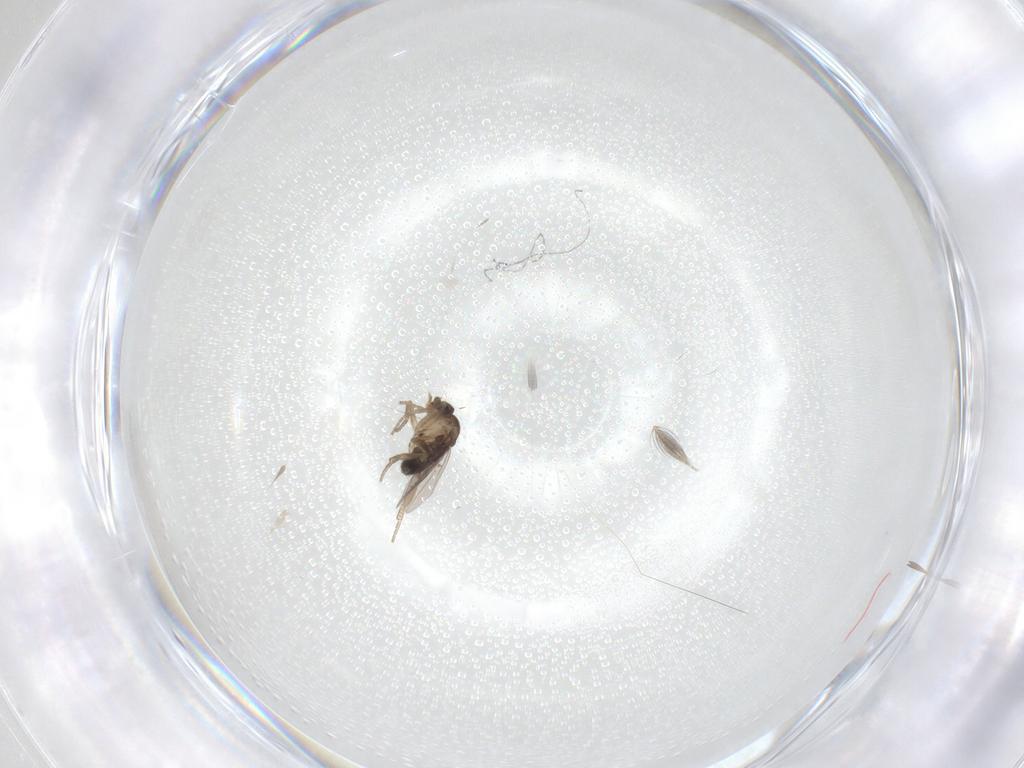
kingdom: Animalia
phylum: Arthropoda
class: Insecta
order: Diptera
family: Ceratopogonidae
